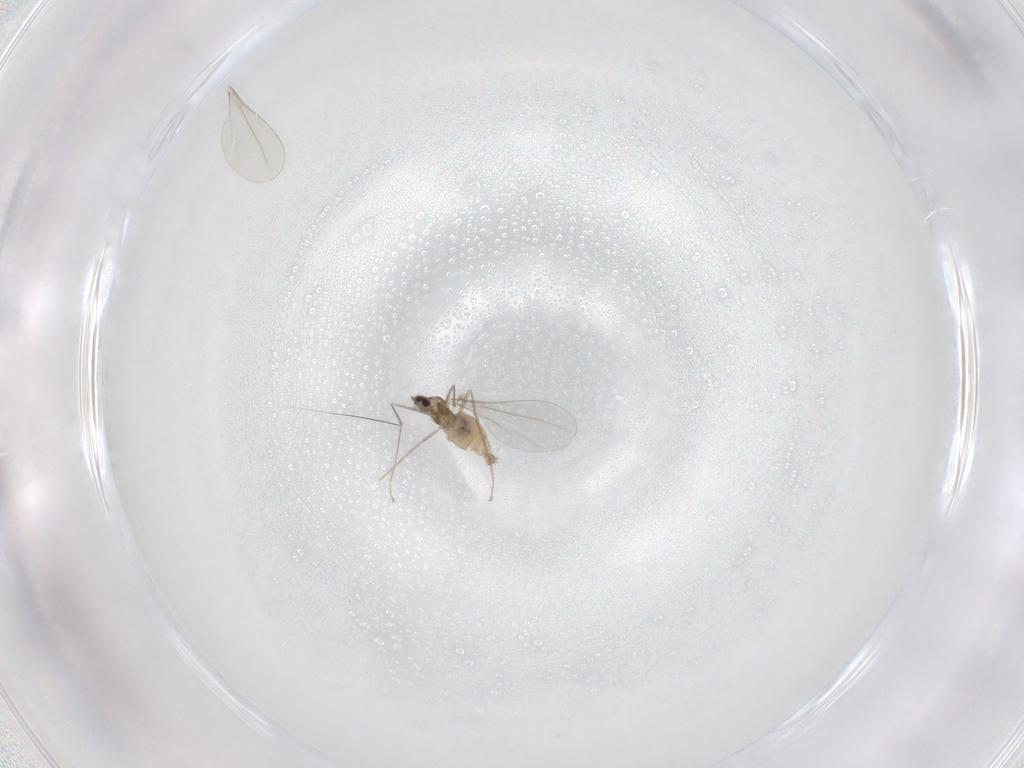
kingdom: Animalia
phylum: Arthropoda
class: Insecta
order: Diptera
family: Cecidomyiidae
